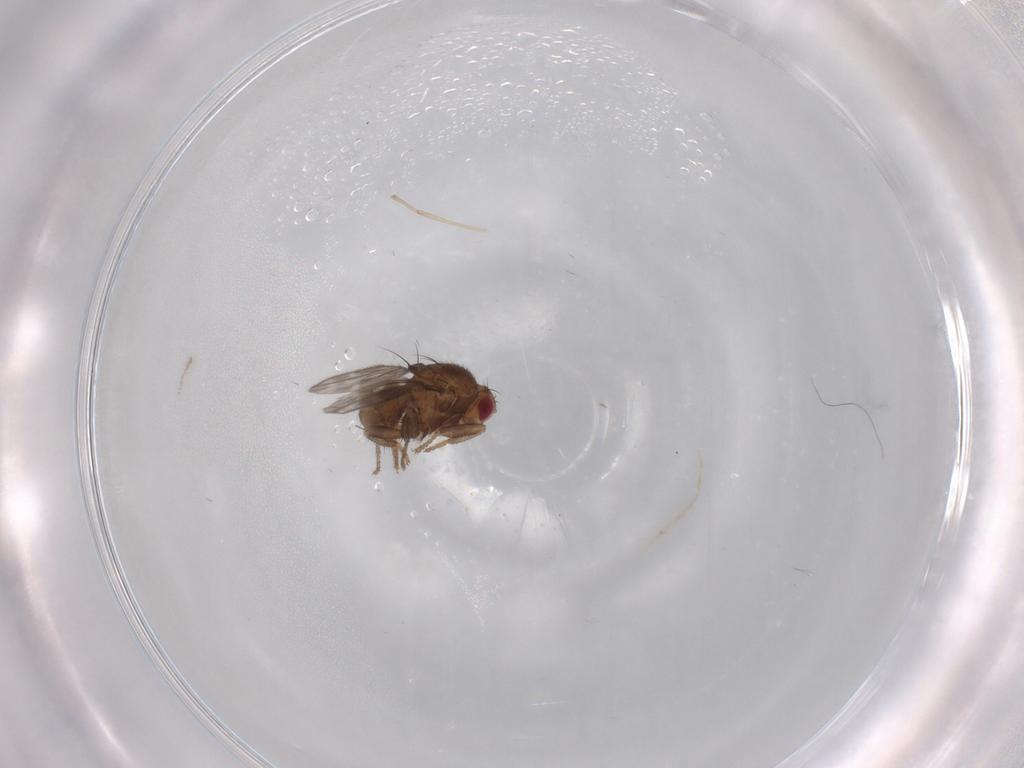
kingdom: Animalia
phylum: Arthropoda
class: Insecta
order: Diptera
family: Sphaeroceridae
